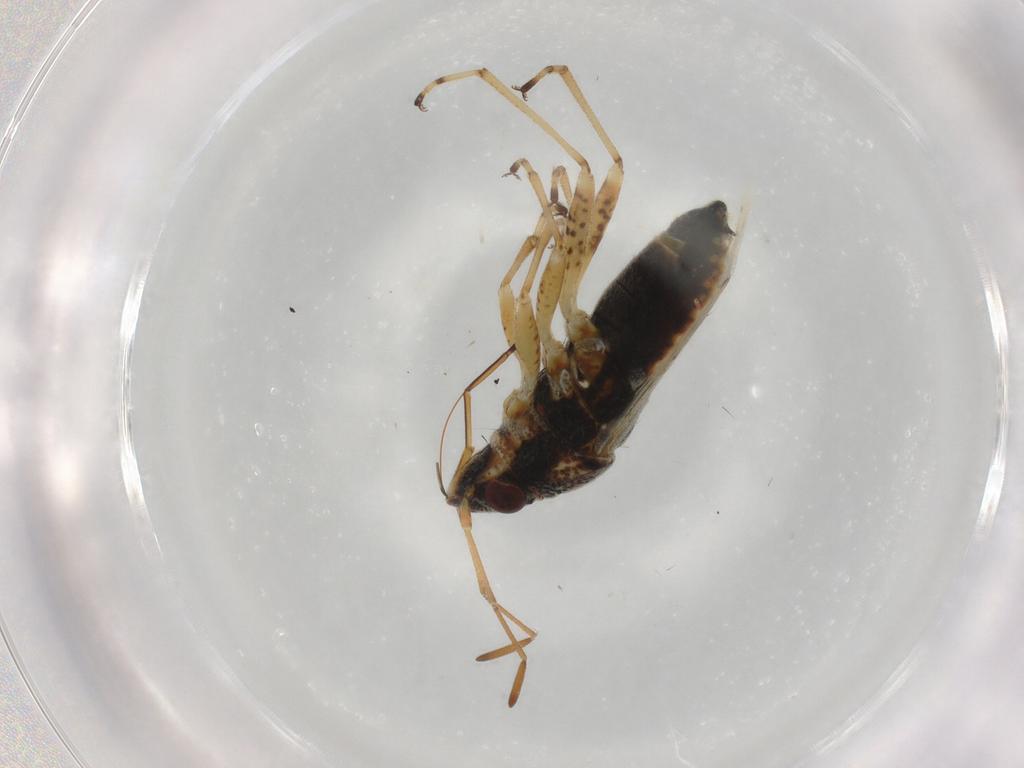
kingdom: Animalia
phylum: Arthropoda
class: Insecta
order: Hemiptera
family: Lygaeidae
